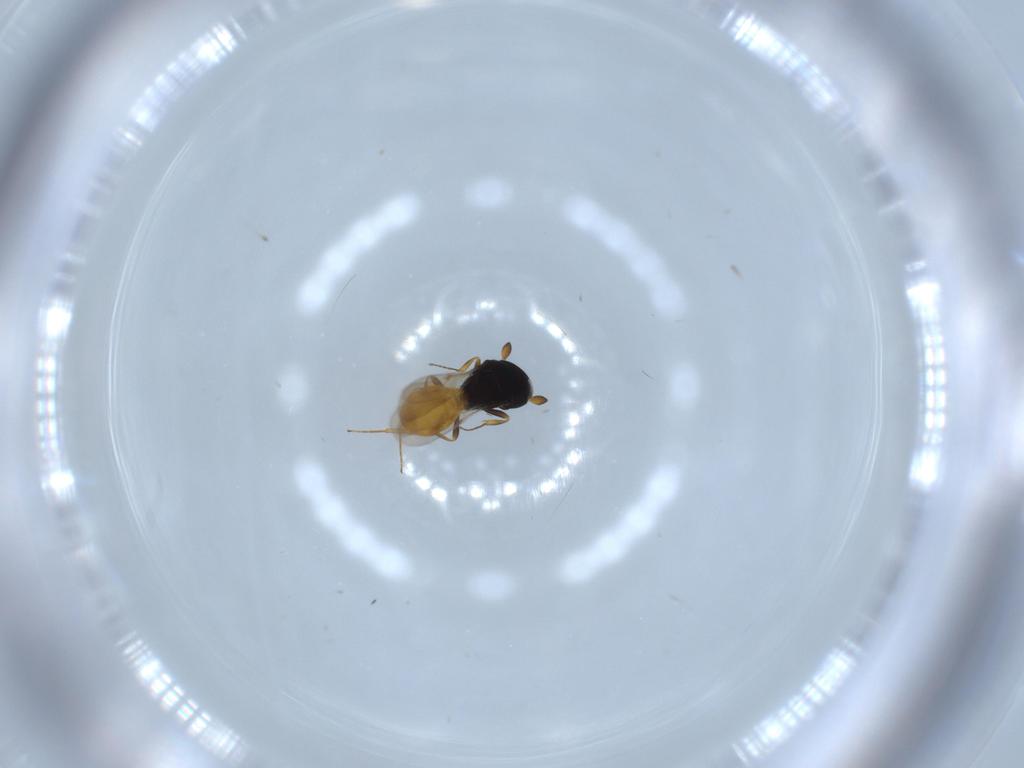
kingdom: Animalia
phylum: Arthropoda
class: Insecta
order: Hymenoptera
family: Scelionidae
